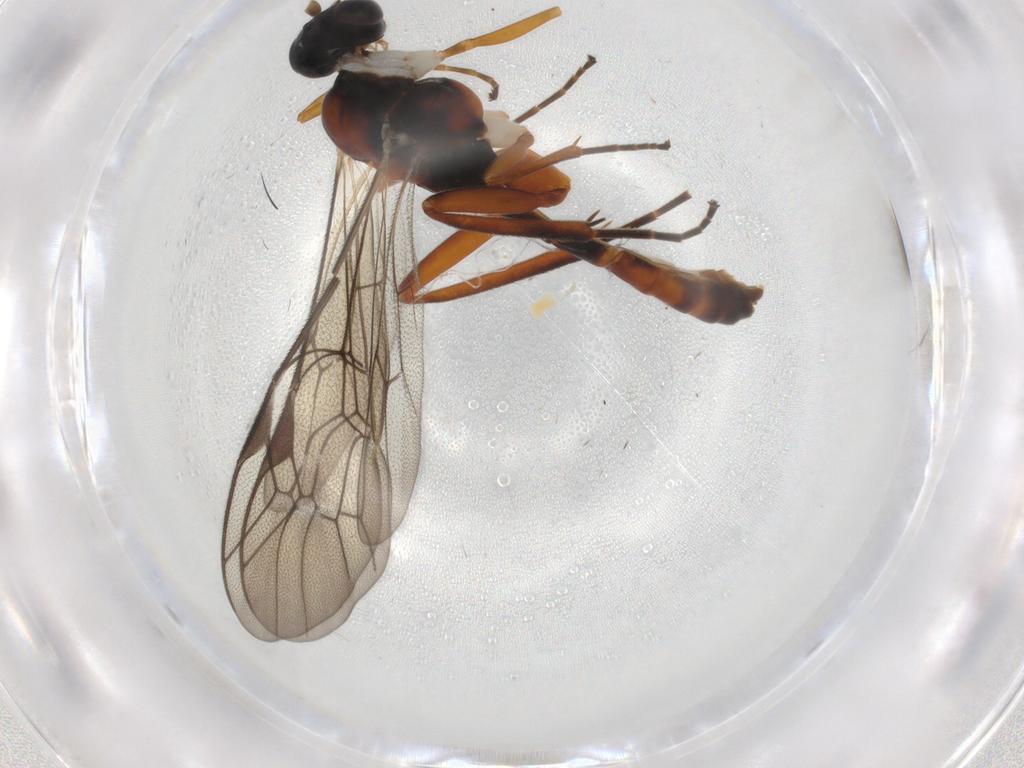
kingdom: Animalia
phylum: Arthropoda
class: Insecta
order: Hymenoptera
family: Ichneumonidae
